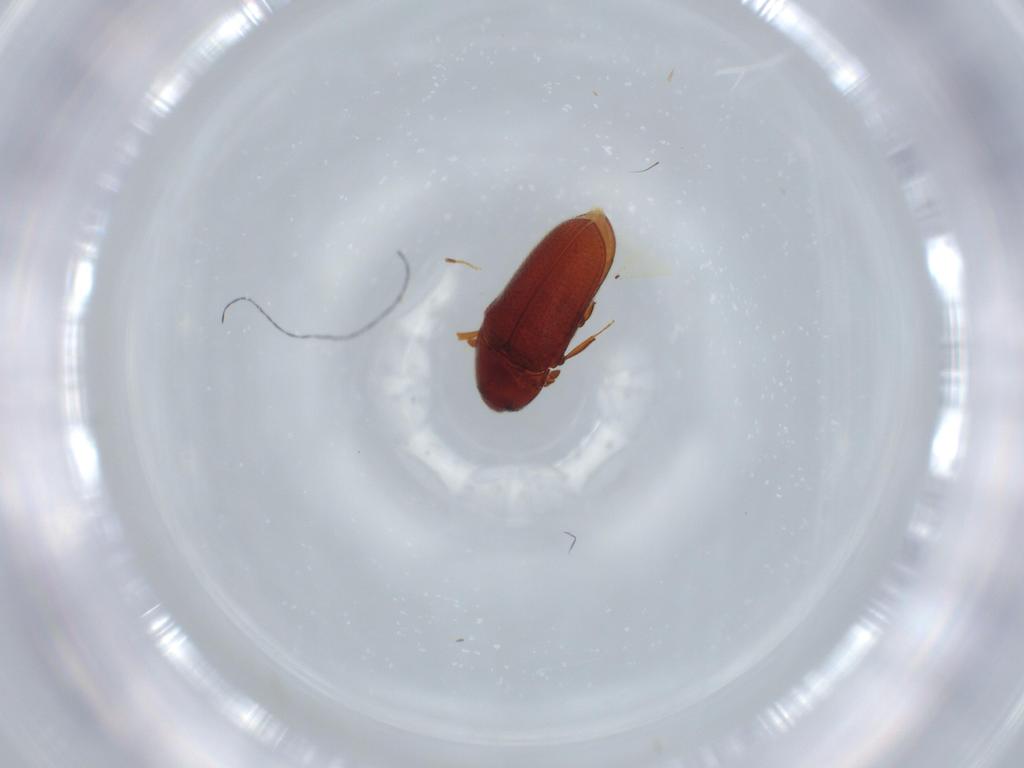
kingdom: Animalia
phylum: Arthropoda
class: Insecta
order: Coleoptera
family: Throscidae
